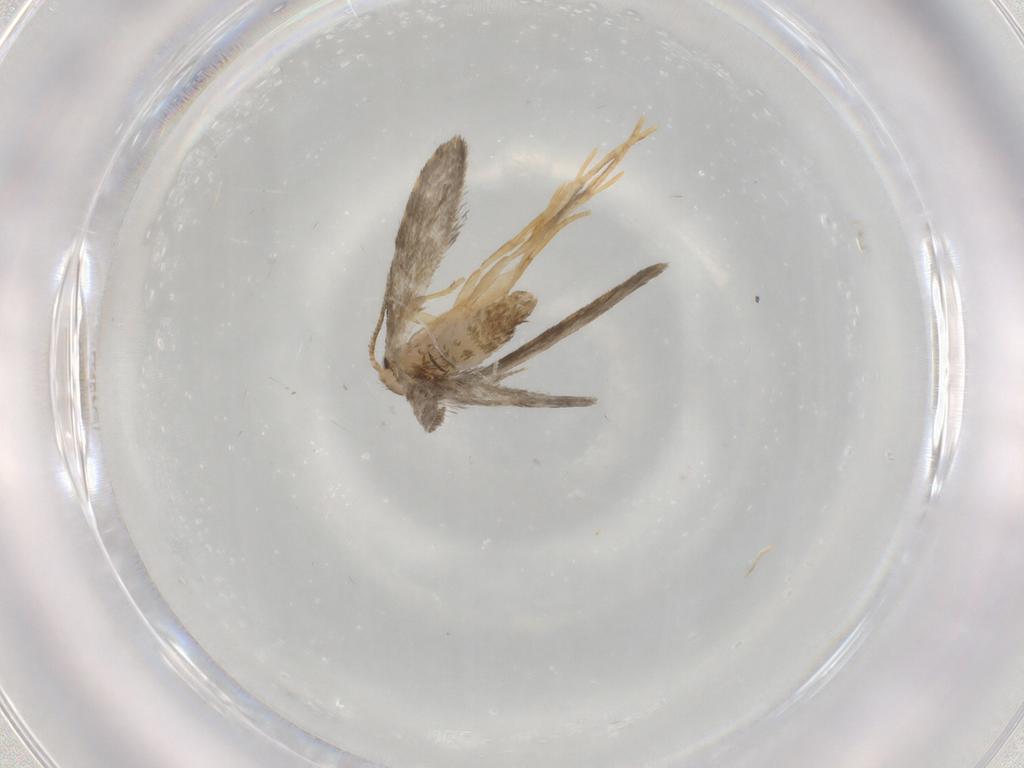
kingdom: Animalia
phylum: Arthropoda
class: Insecta
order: Lepidoptera
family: Psychidae
